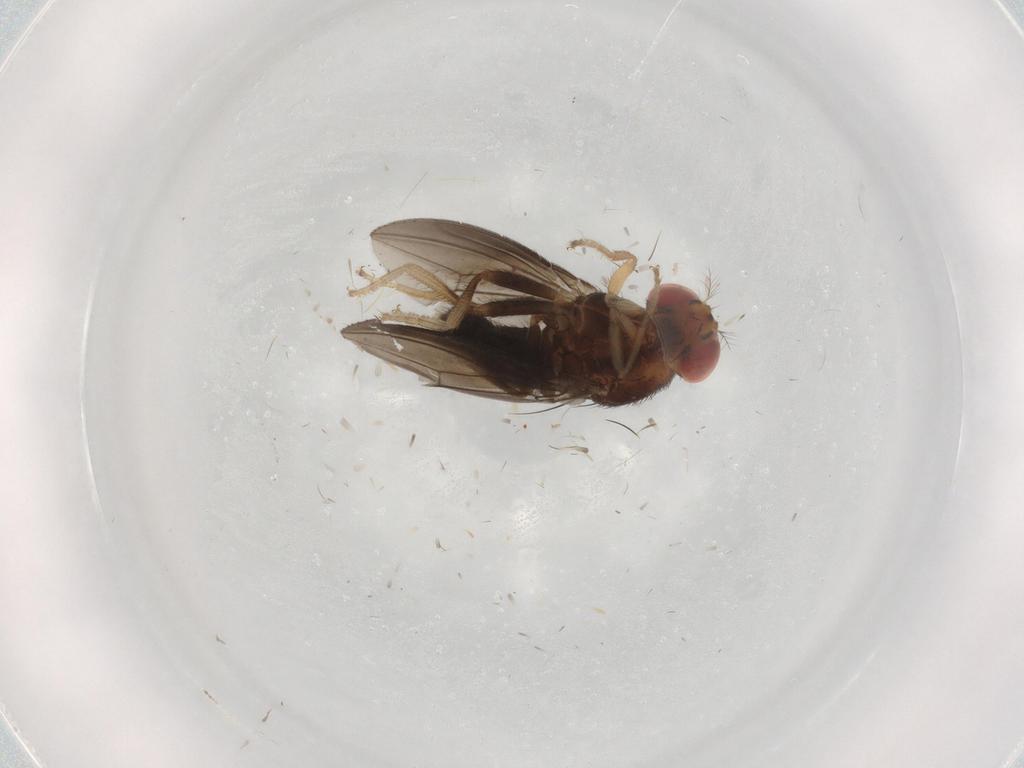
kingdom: Animalia
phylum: Arthropoda
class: Insecta
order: Diptera
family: Drosophilidae
